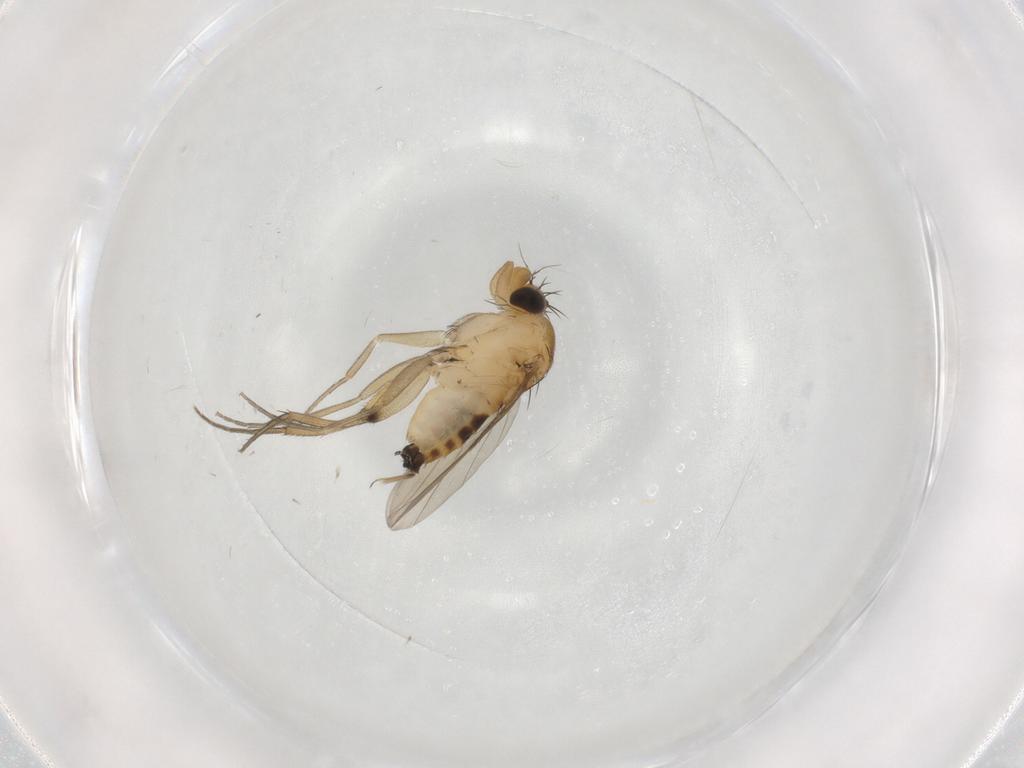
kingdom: Animalia
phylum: Arthropoda
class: Insecta
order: Diptera
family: Phoridae
